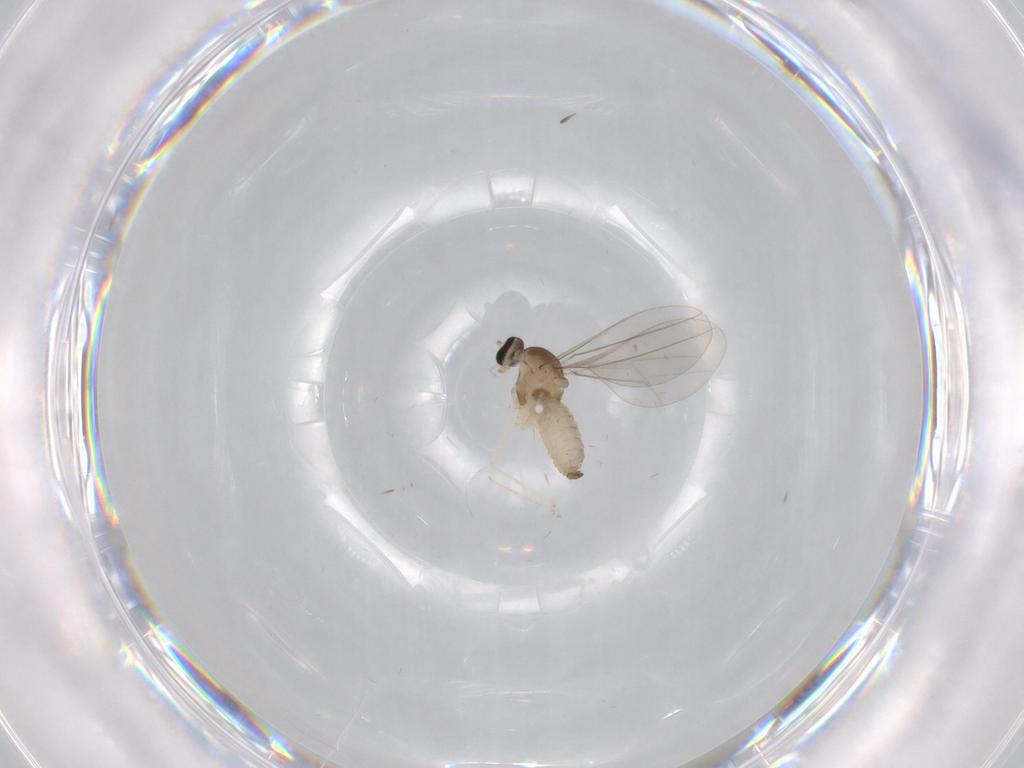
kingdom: Animalia
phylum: Arthropoda
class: Insecta
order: Diptera
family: Cecidomyiidae
